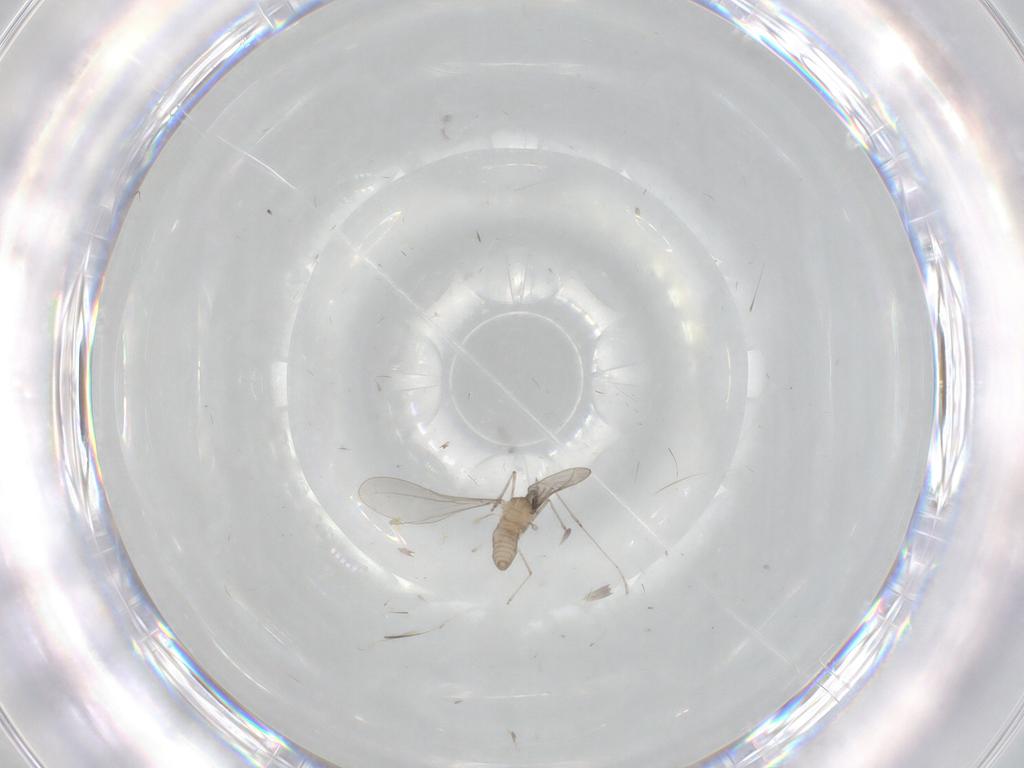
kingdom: Animalia
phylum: Arthropoda
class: Insecta
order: Diptera
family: Cecidomyiidae
